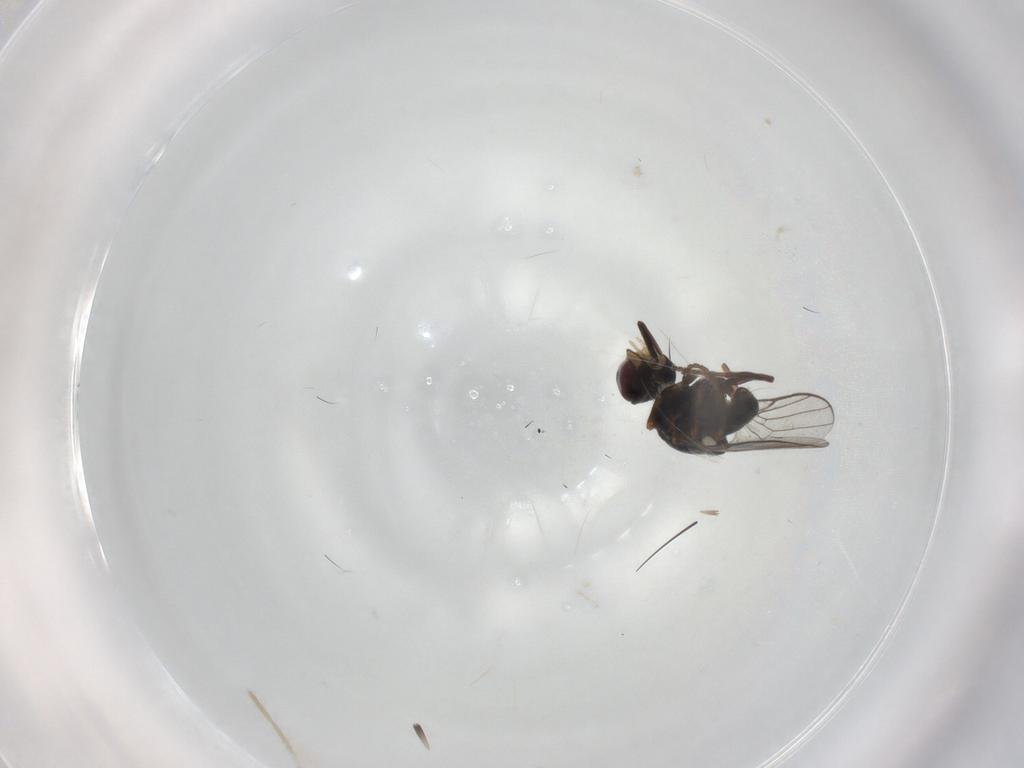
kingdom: Animalia
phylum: Arthropoda
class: Insecta
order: Diptera
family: Chloropidae
